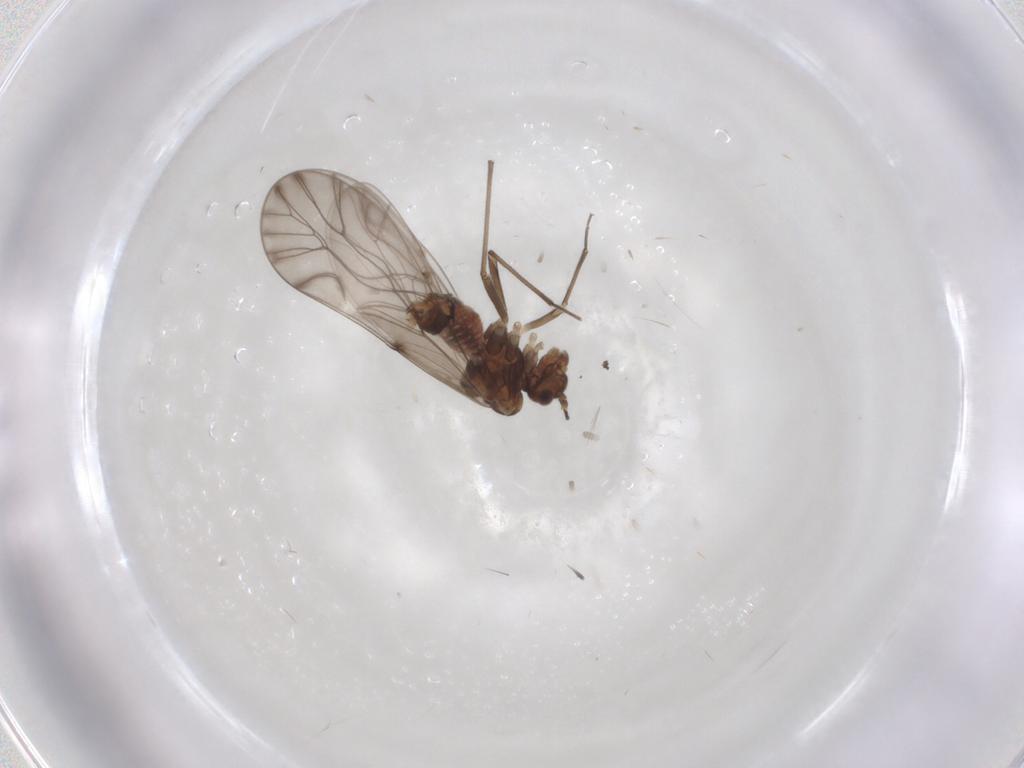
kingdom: Animalia
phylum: Arthropoda
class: Insecta
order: Psocodea
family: Lachesillidae
